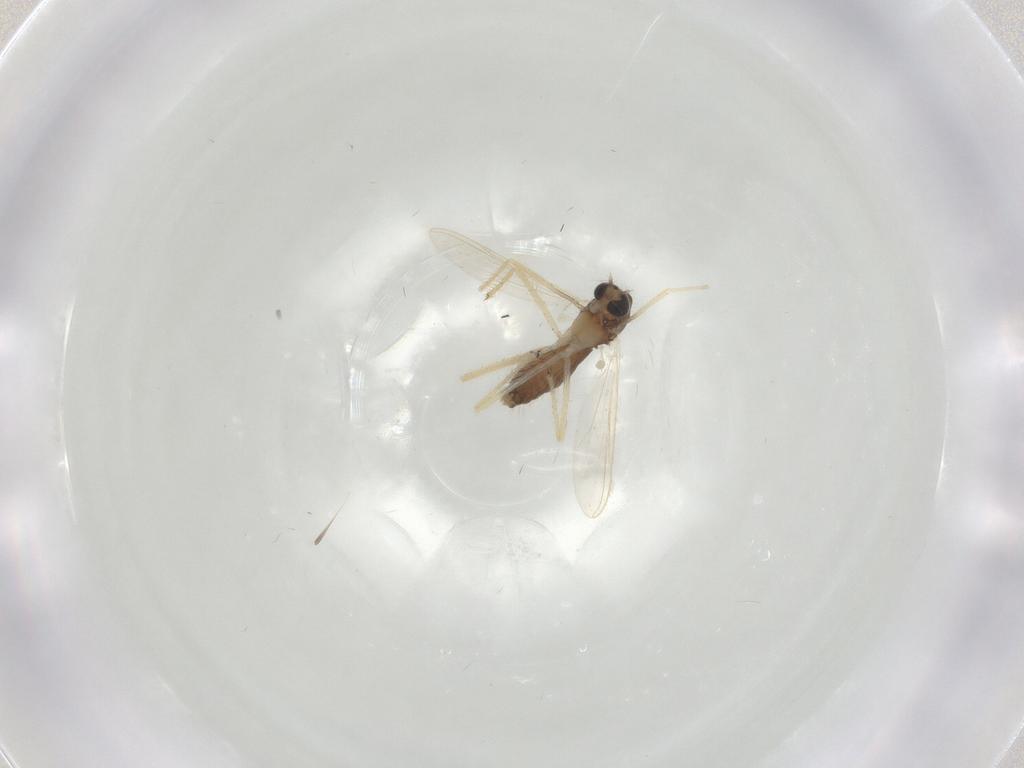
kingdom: Animalia
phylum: Arthropoda
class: Insecta
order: Diptera
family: Chironomidae
